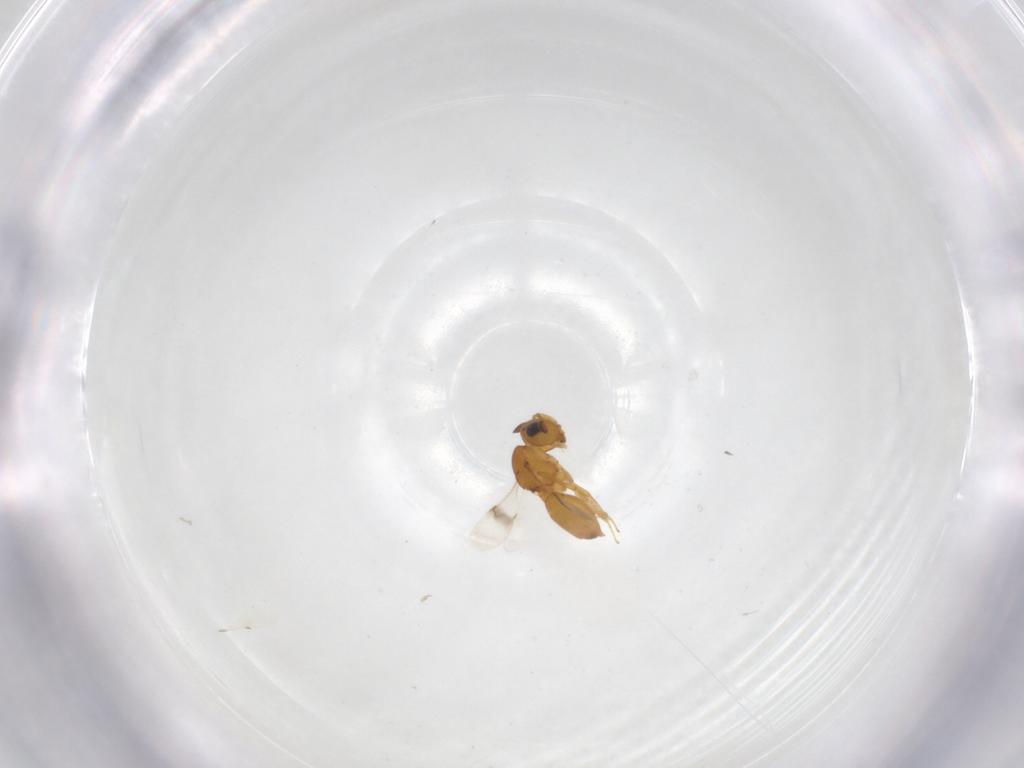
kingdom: Animalia
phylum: Arthropoda
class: Insecta
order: Hymenoptera
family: Scelionidae
